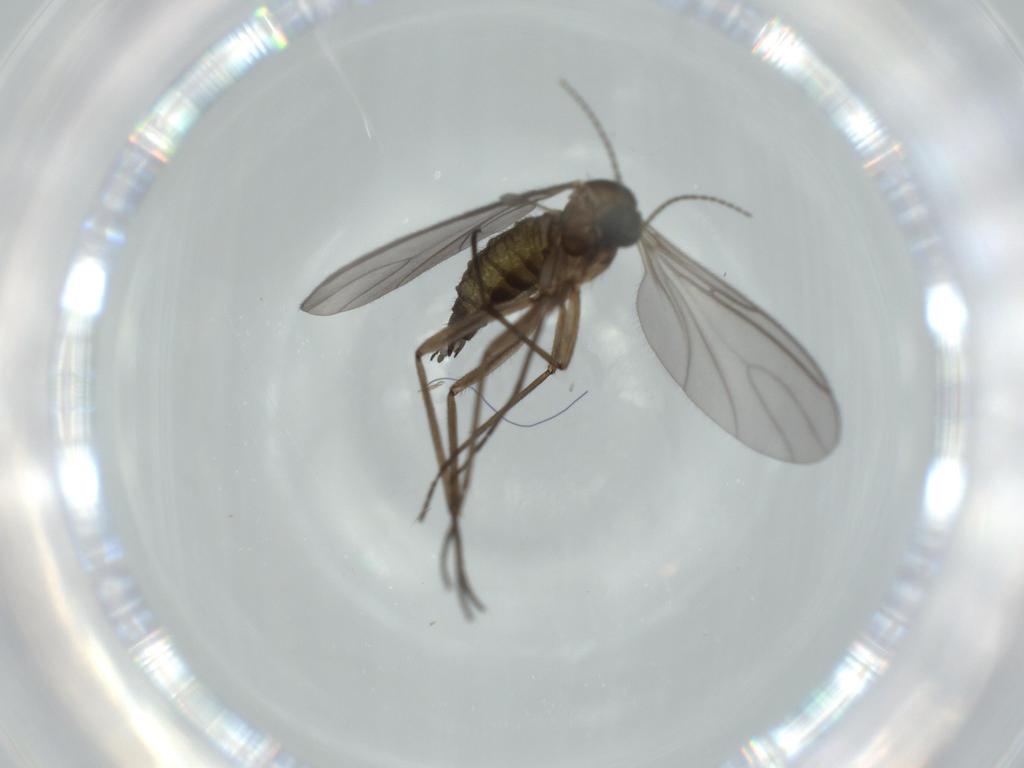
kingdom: Animalia
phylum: Arthropoda
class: Insecta
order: Diptera
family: Sciaridae
